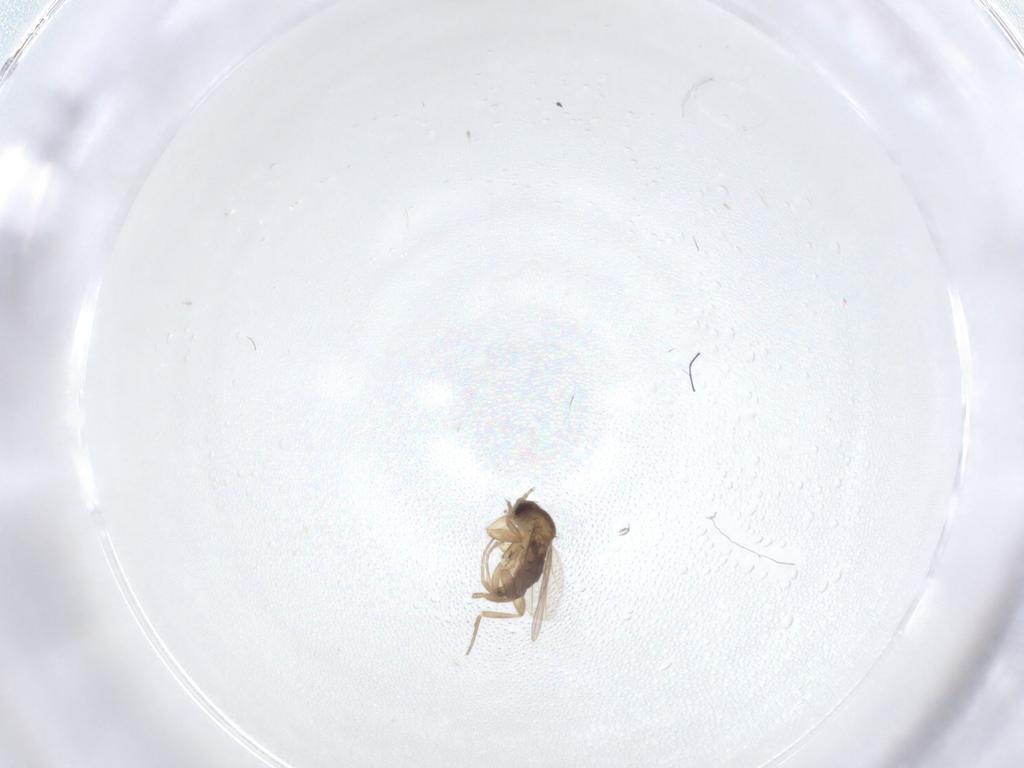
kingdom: Animalia
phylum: Arthropoda
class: Insecta
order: Diptera
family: Phoridae
